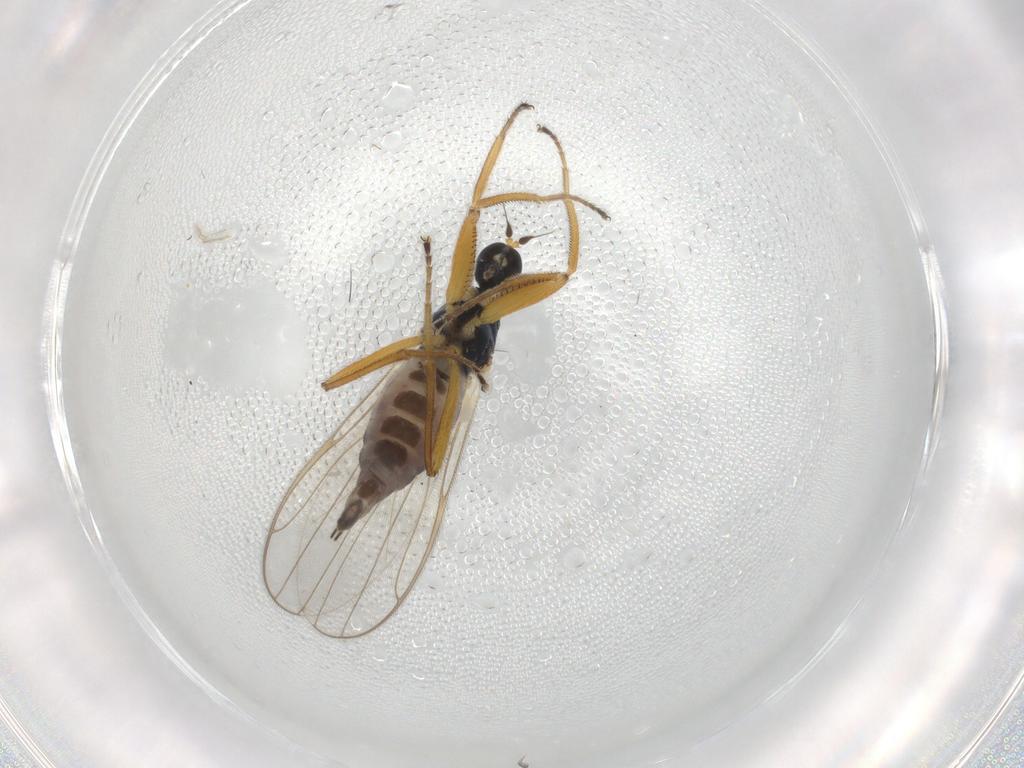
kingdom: Animalia
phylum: Arthropoda
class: Insecta
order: Diptera
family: Hybotidae
